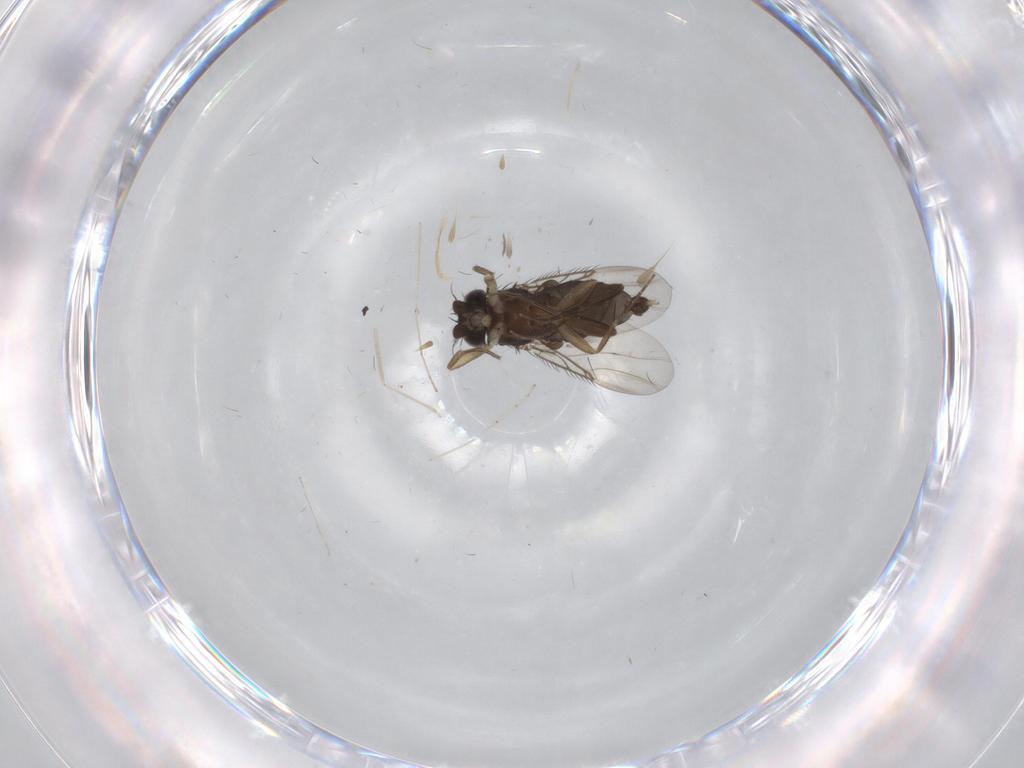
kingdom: Animalia
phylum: Arthropoda
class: Insecta
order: Diptera
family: Phoridae
